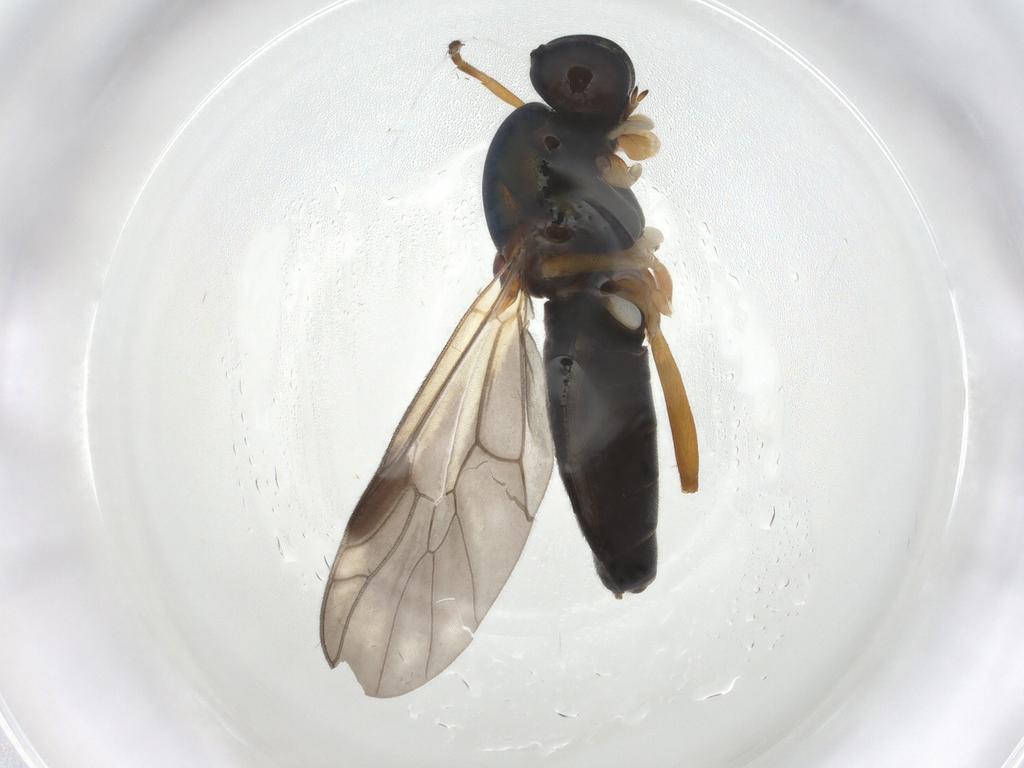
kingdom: Animalia
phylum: Arthropoda
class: Insecta
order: Diptera
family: Stratiomyidae
